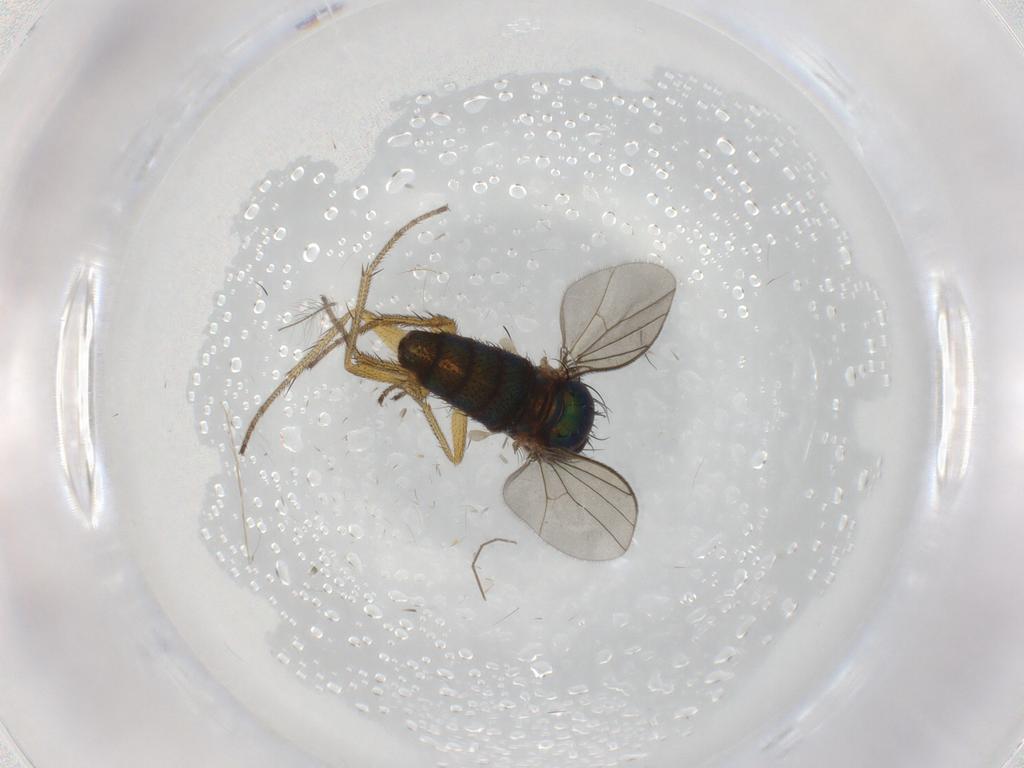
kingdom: Animalia
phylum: Arthropoda
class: Insecta
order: Diptera
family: Dolichopodidae
